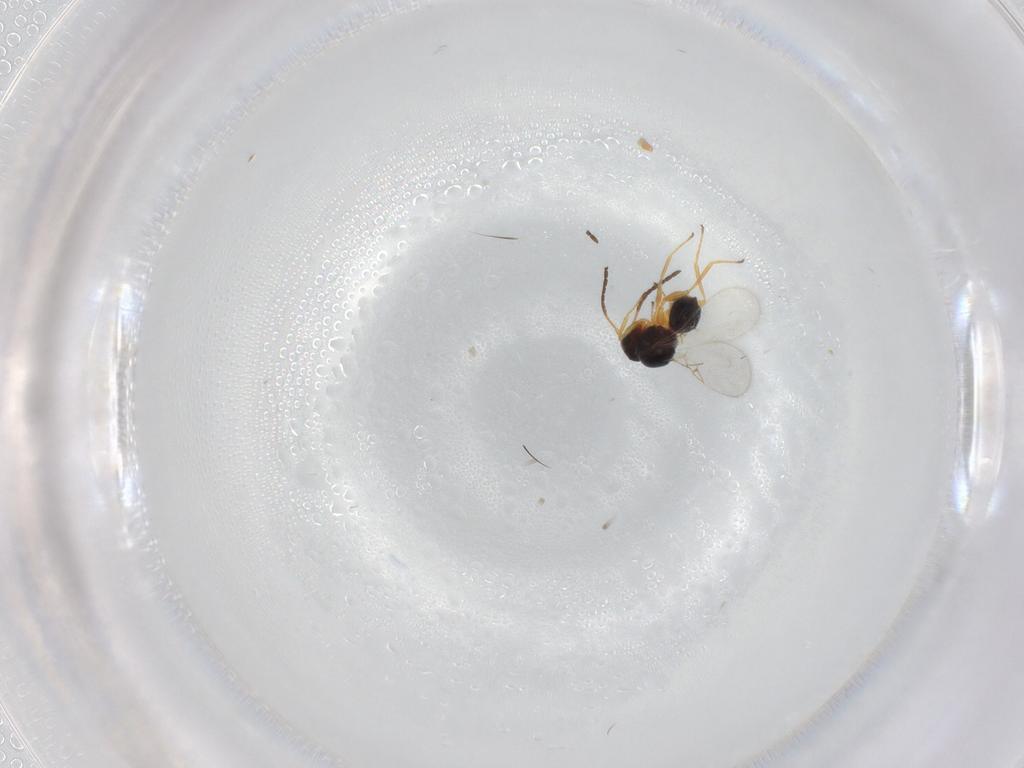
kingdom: Animalia
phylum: Arthropoda
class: Insecta
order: Hymenoptera
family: Figitidae
